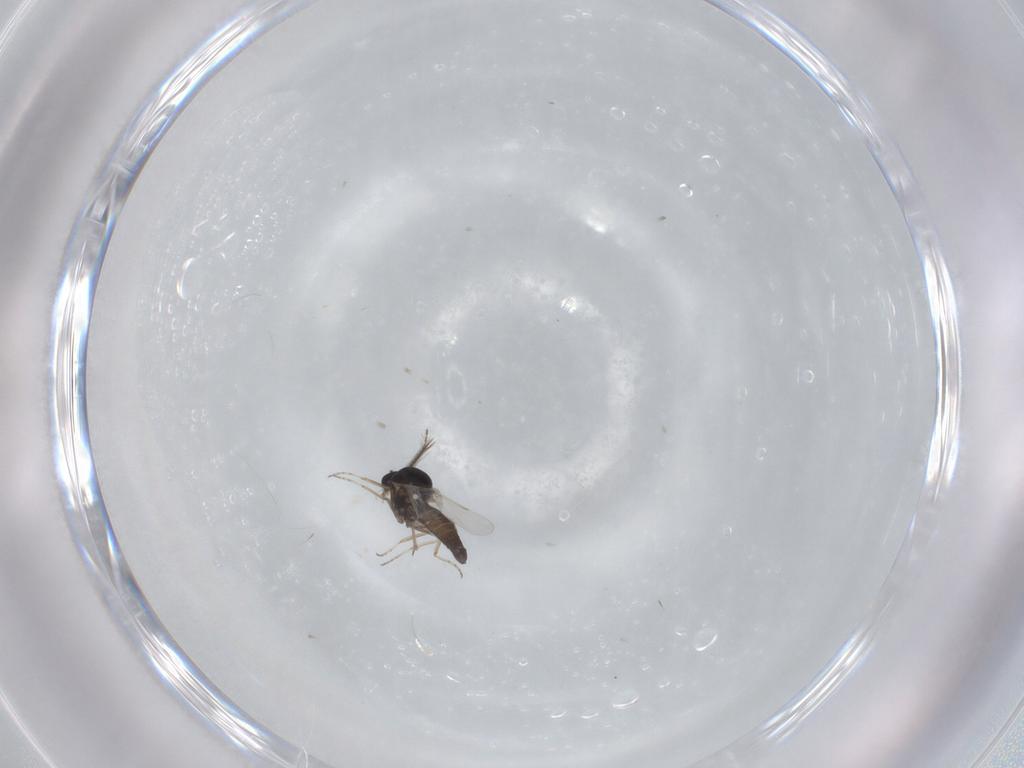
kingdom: Animalia
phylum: Arthropoda
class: Insecta
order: Diptera
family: Ceratopogonidae
